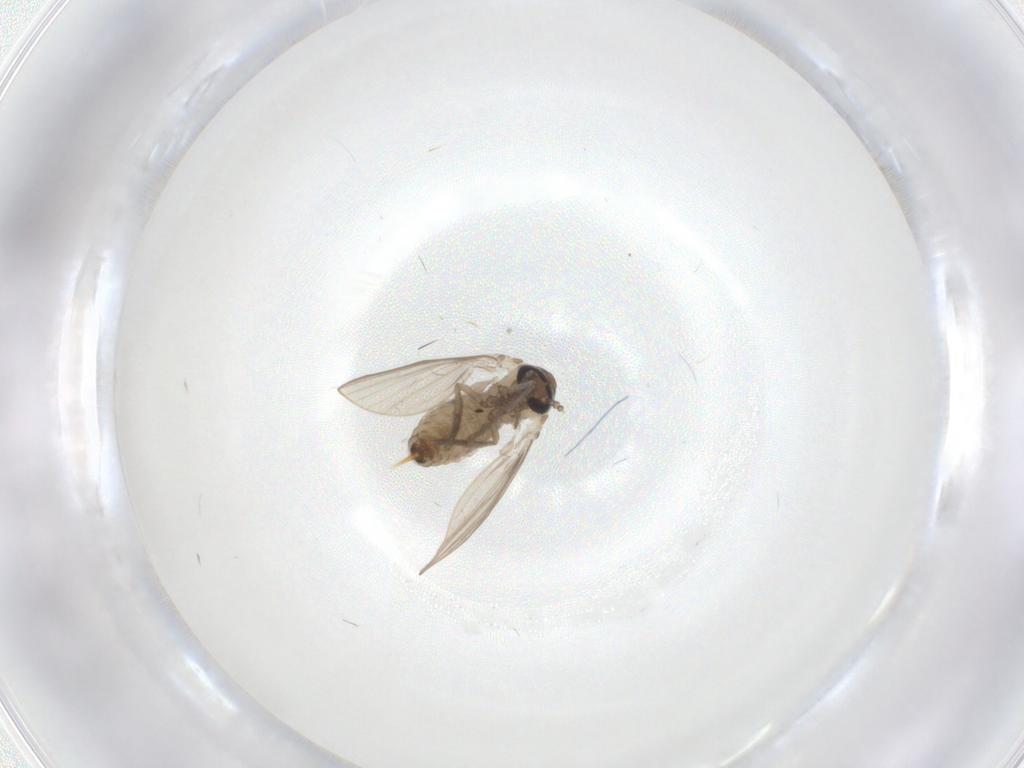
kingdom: Animalia
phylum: Arthropoda
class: Insecta
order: Diptera
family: Psychodidae
